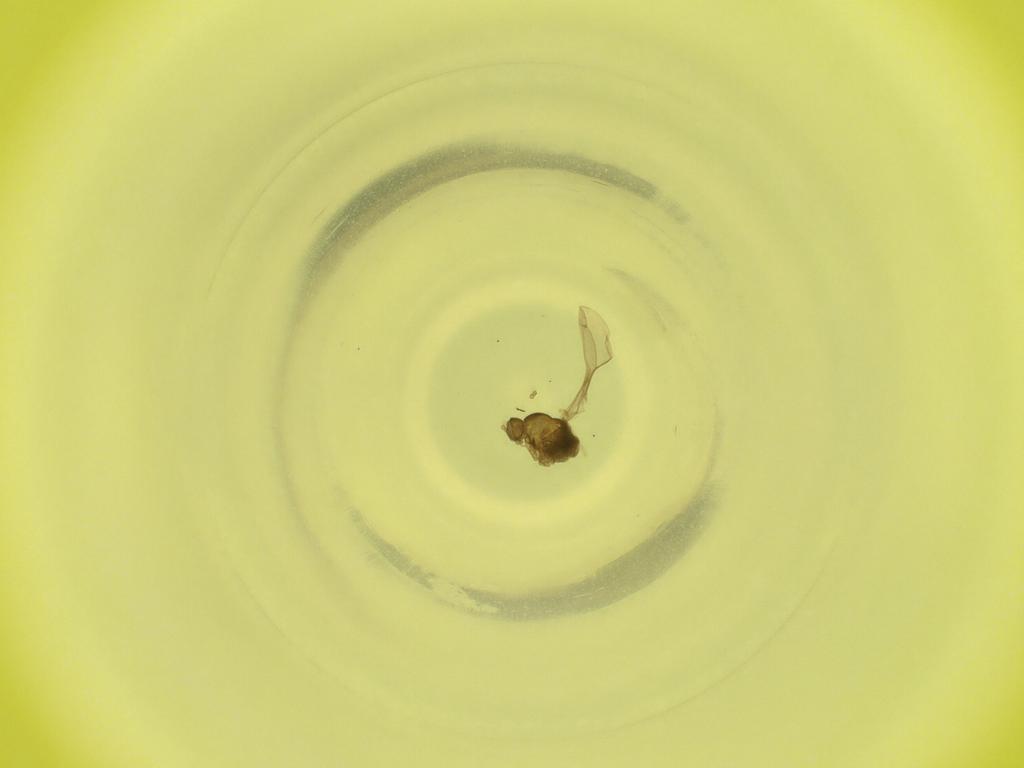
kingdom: Animalia
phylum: Arthropoda
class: Insecta
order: Diptera
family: Cecidomyiidae
